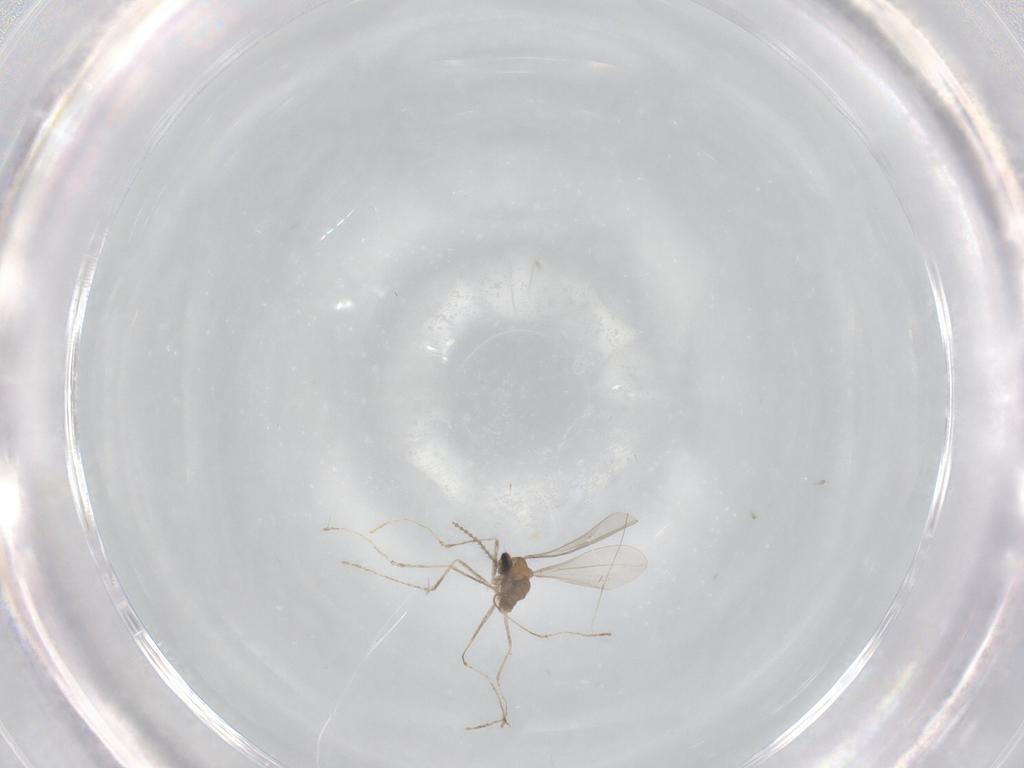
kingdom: Animalia
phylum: Arthropoda
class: Insecta
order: Diptera
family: Cecidomyiidae
